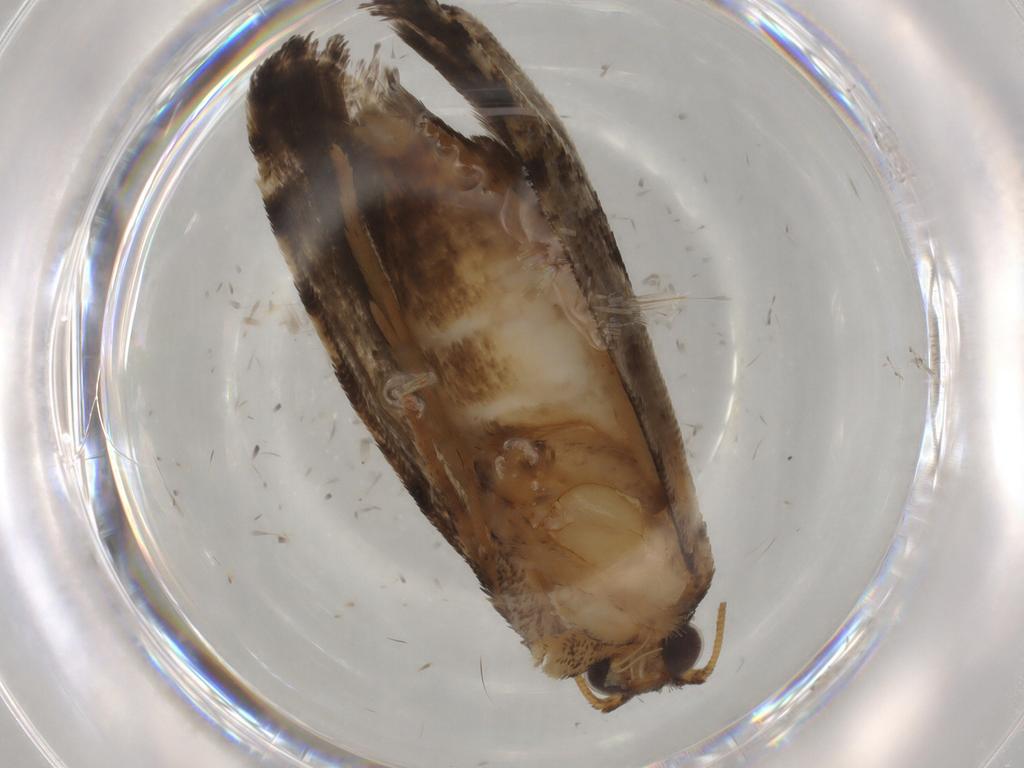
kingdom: Animalia
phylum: Arthropoda
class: Insecta
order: Lepidoptera
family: Tortricidae
